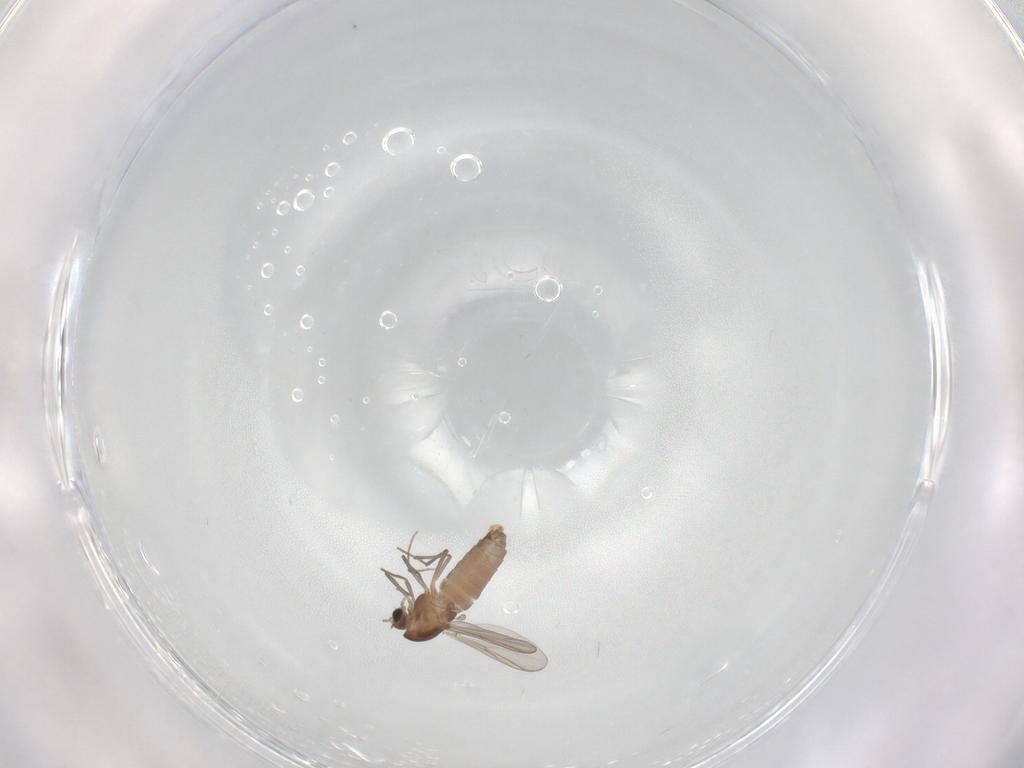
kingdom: Animalia
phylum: Arthropoda
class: Insecta
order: Diptera
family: Chironomidae
